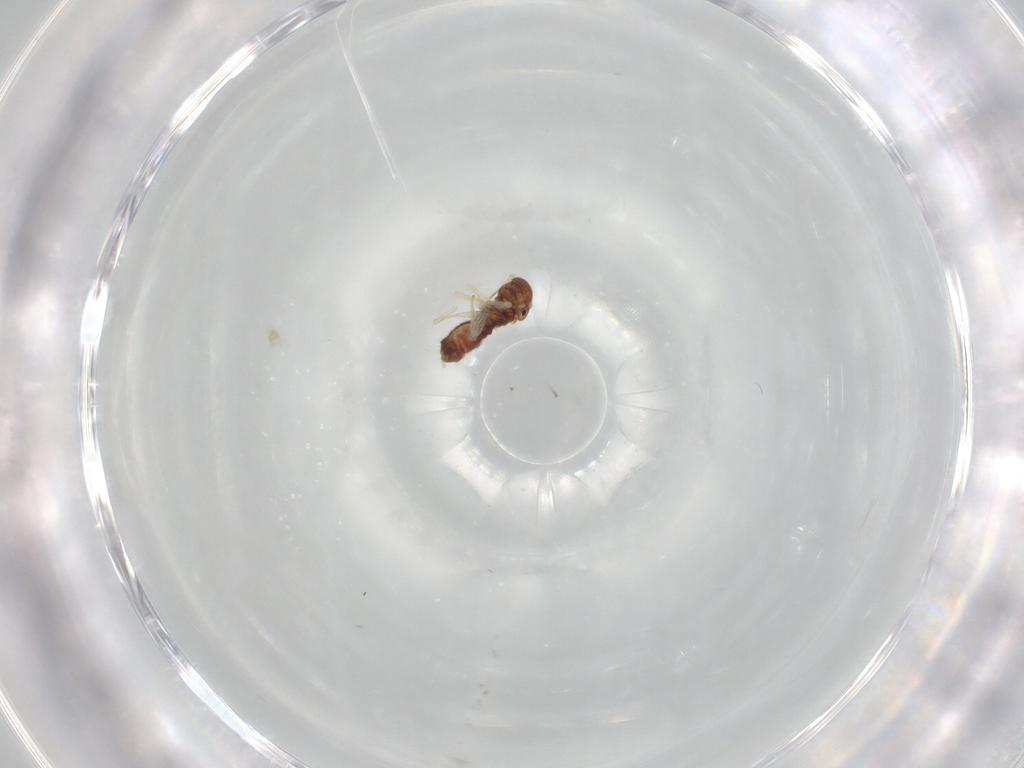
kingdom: Animalia
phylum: Arthropoda
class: Insecta
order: Psocodea
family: Archipsocidae
